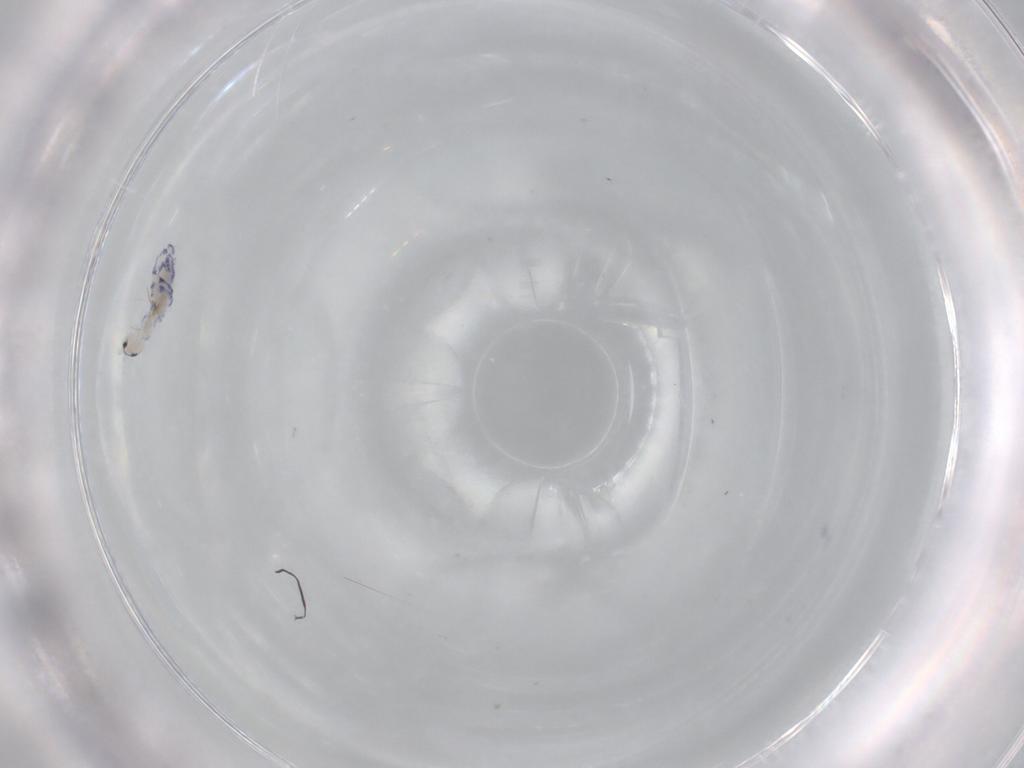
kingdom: Animalia
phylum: Arthropoda
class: Collembola
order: Entomobryomorpha
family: Entomobryidae
